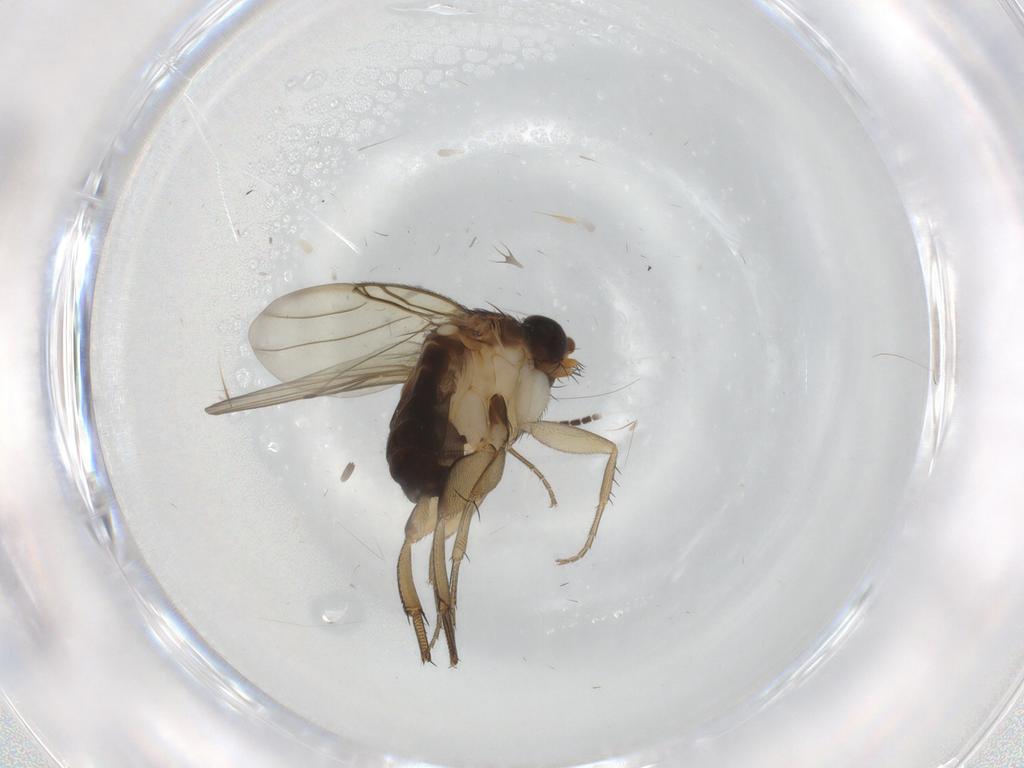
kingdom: Animalia
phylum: Arthropoda
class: Insecta
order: Diptera
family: Phoridae
